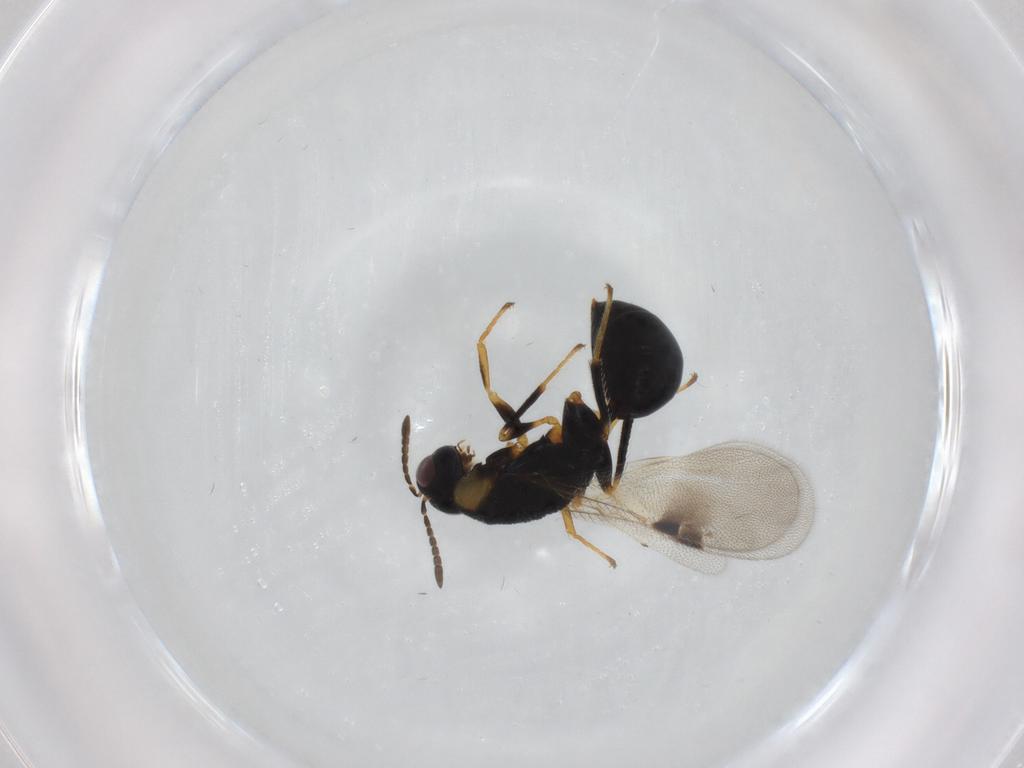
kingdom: Animalia
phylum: Arthropoda
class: Insecta
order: Hymenoptera
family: Eurytomidae
